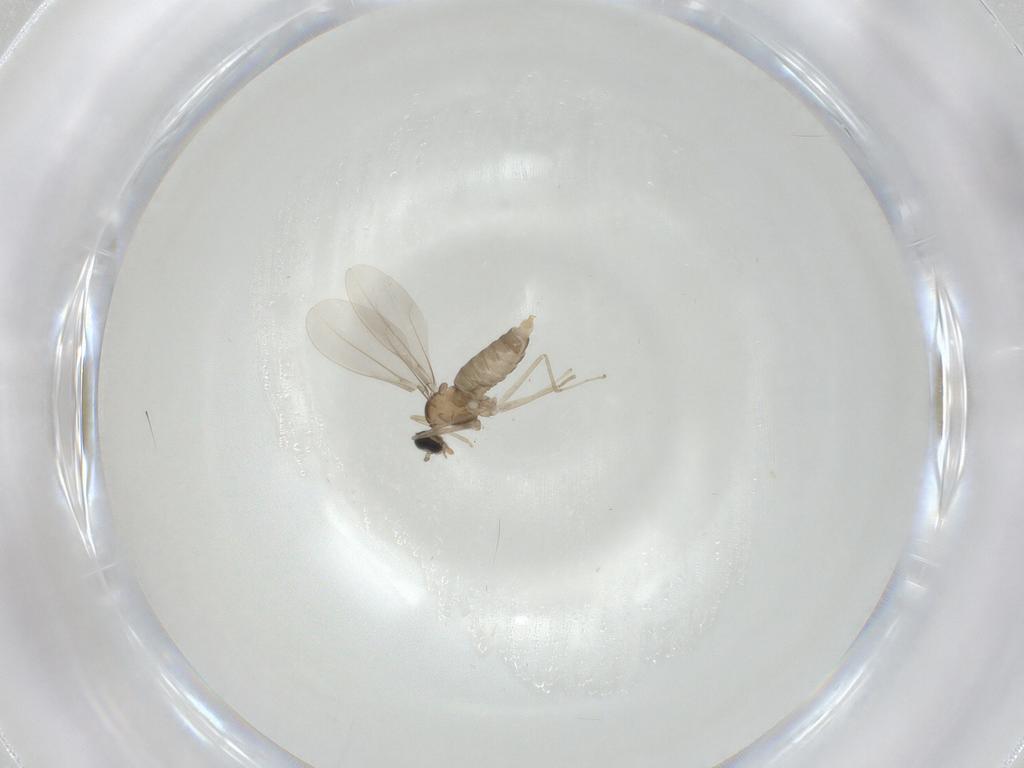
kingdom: Animalia
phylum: Arthropoda
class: Insecta
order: Diptera
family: Cecidomyiidae
